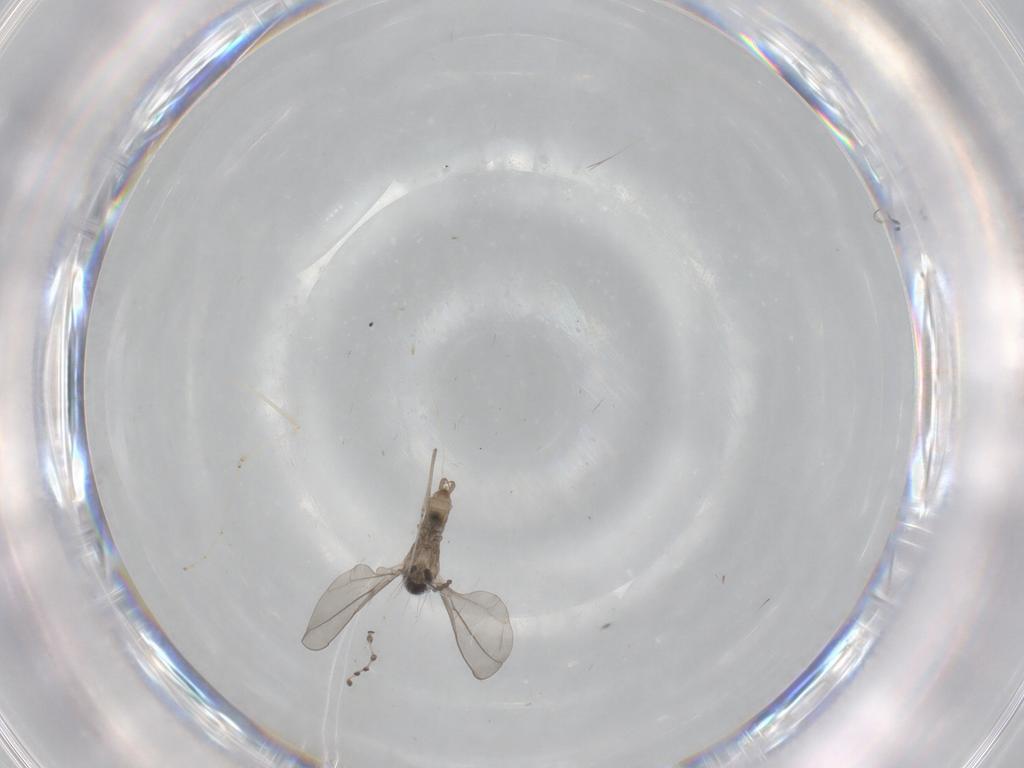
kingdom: Animalia
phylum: Arthropoda
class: Insecta
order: Diptera
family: Cecidomyiidae
